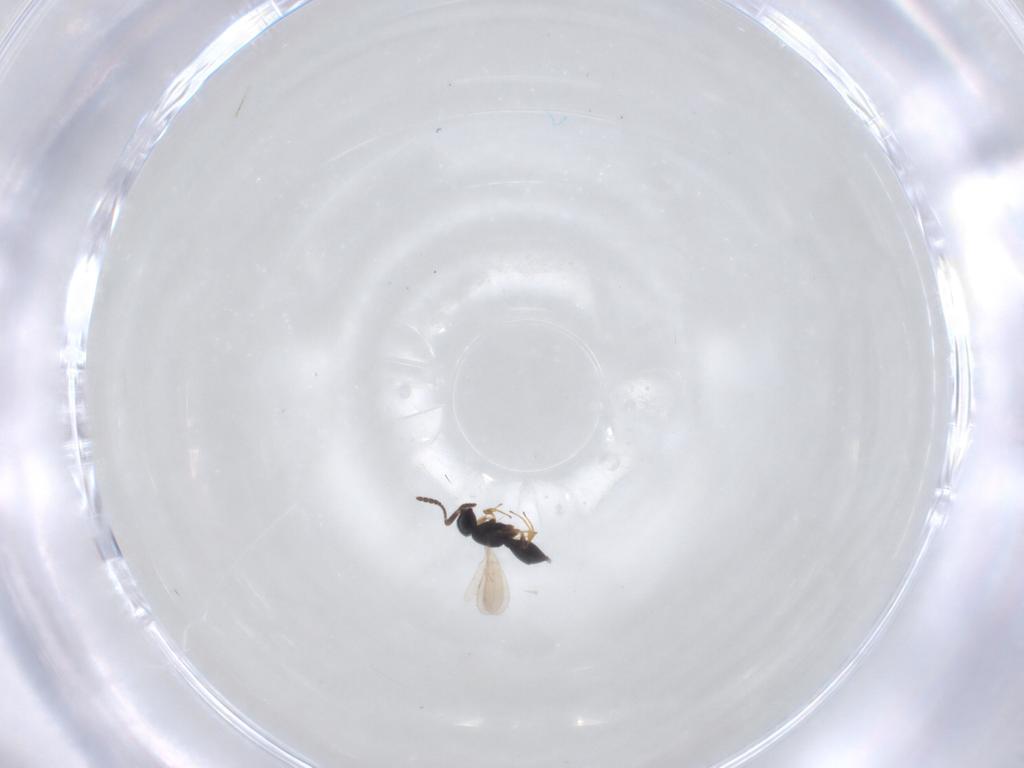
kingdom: Animalia
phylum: Arthropoda
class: Insecta
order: Hymenoptera
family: Scelionidae
